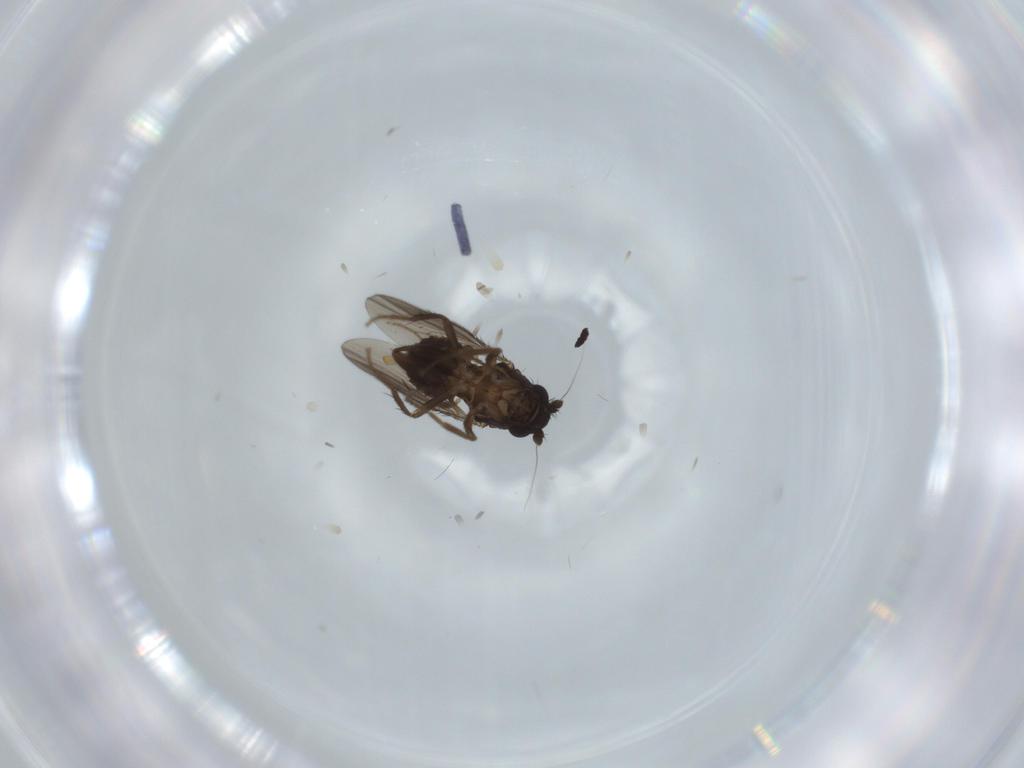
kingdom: Animalia
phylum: Arthropoda
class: Insecta
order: Diptera
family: Sphaeroceridae
